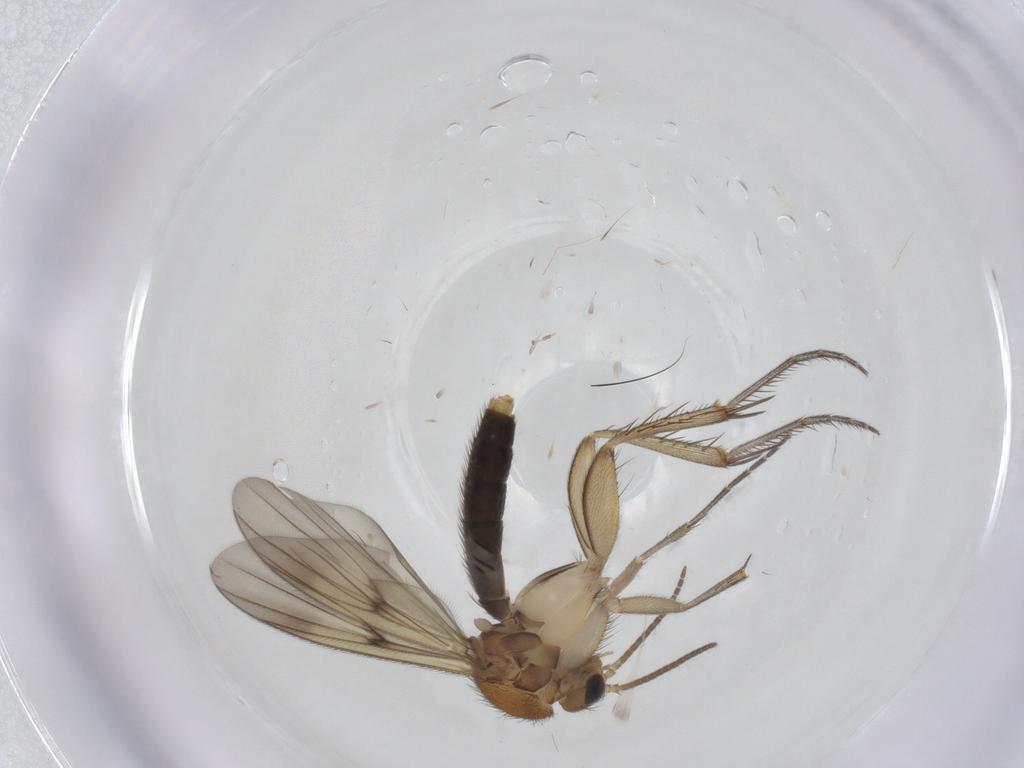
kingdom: Animalia
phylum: Arthropoda
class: Insecta
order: Diptera
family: Mycetophilidae
